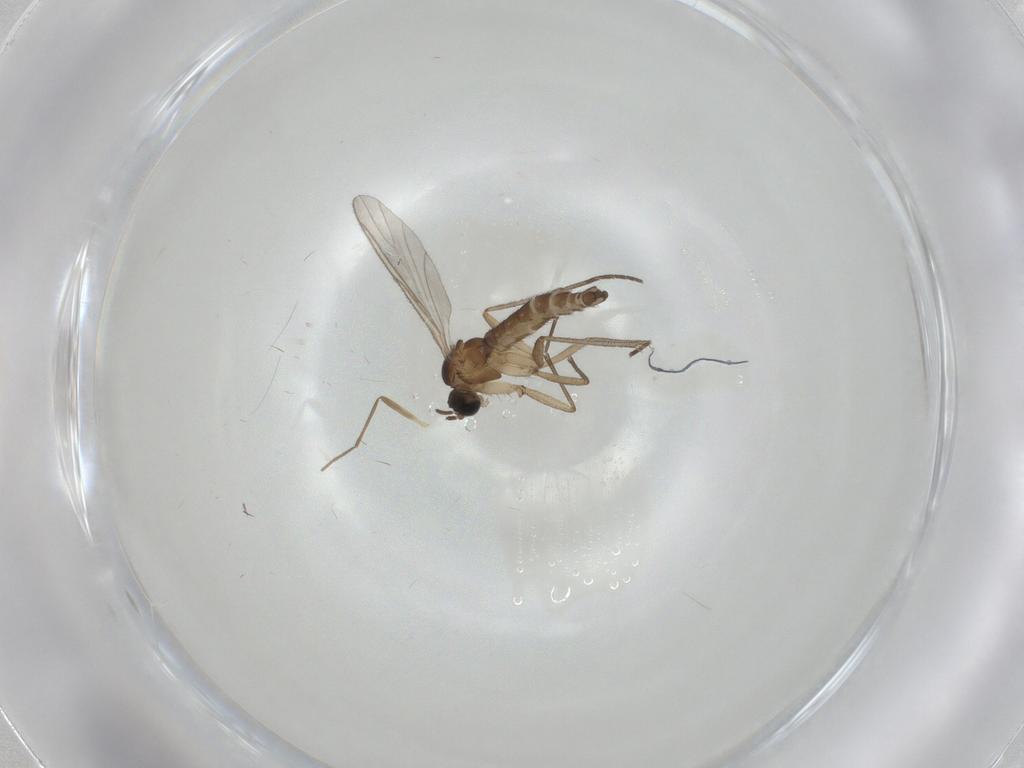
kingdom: Animalia
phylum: Arthropoda
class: Insecta
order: Diptera
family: Sciaridae
